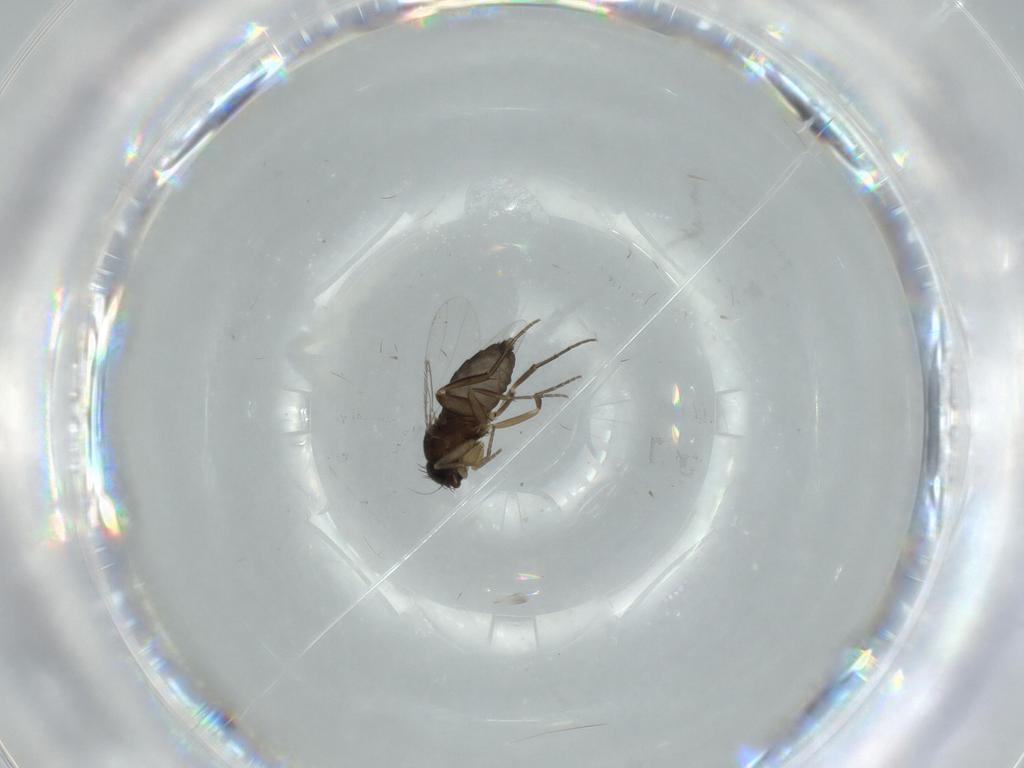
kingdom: Animalia
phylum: Arthropoda
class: Insecta
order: Diptera
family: Phoridae
